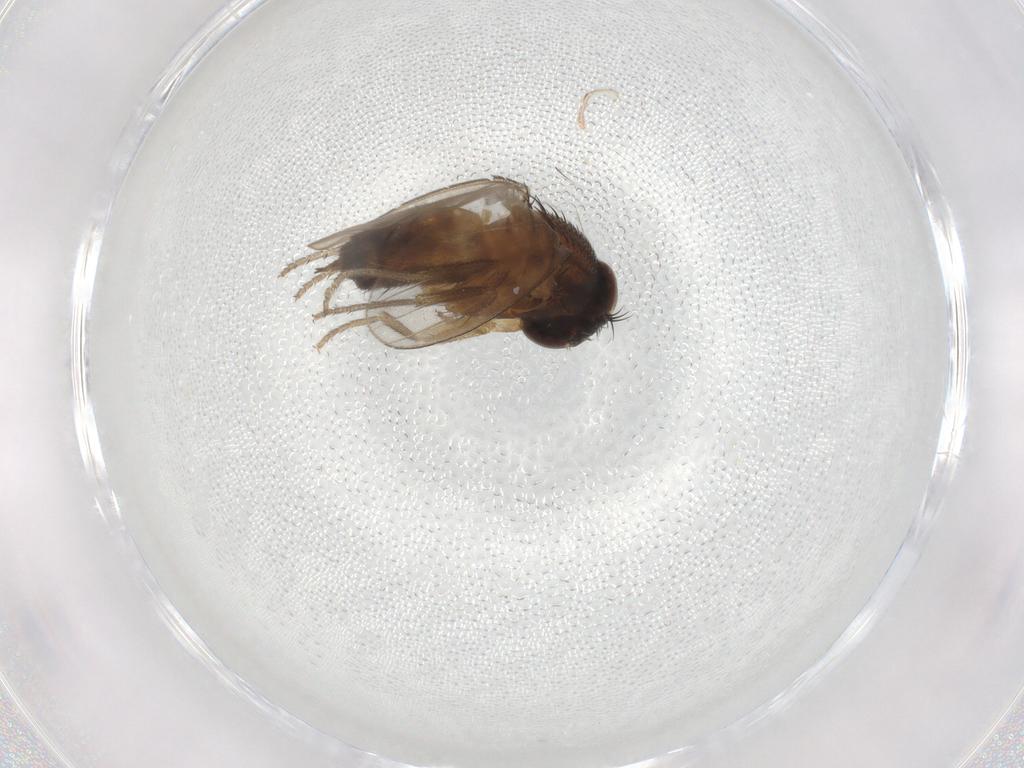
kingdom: Animalia
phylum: Arthropoda
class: Insecta
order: Diptera
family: Milichiidae
